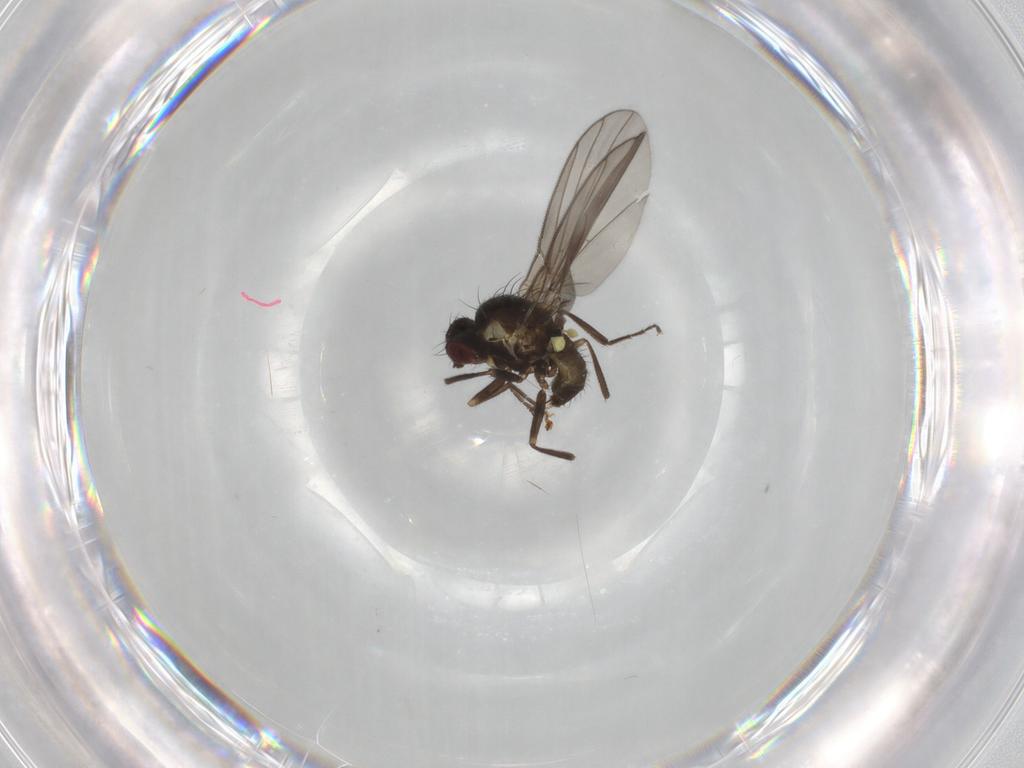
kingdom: Animalia
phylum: Arthropoda
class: Insecta
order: Diptera
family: Agromyzidae
